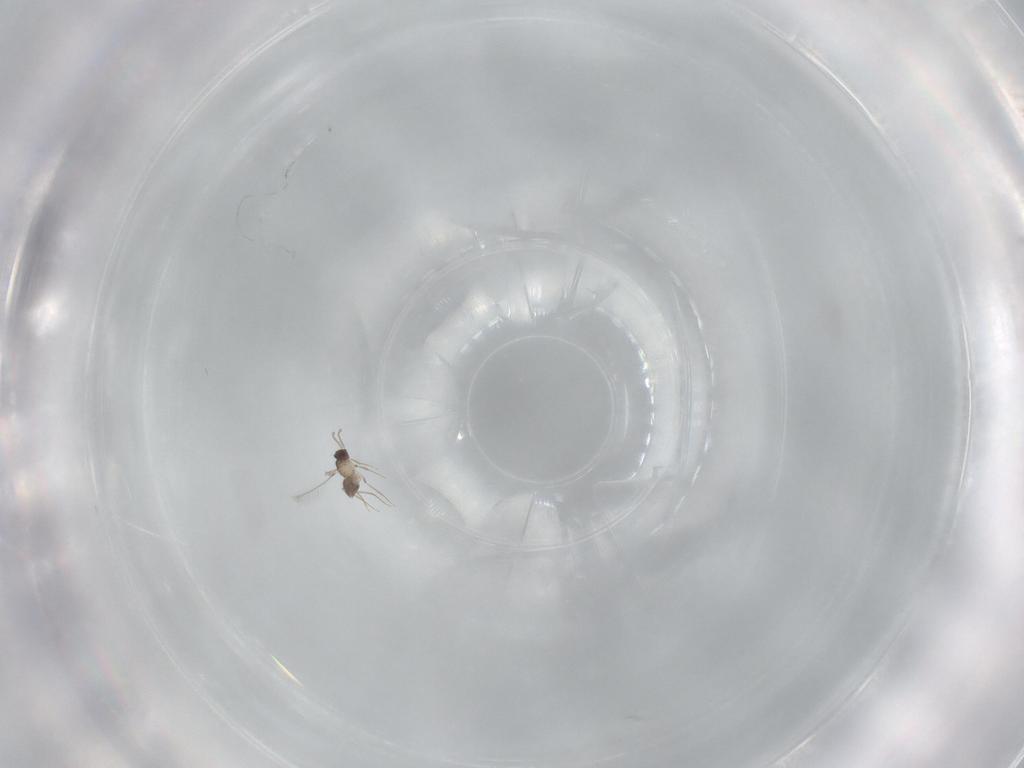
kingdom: Animalia
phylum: Arthropoda
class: Insecta
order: Hymenoptera
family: Mymaridae
